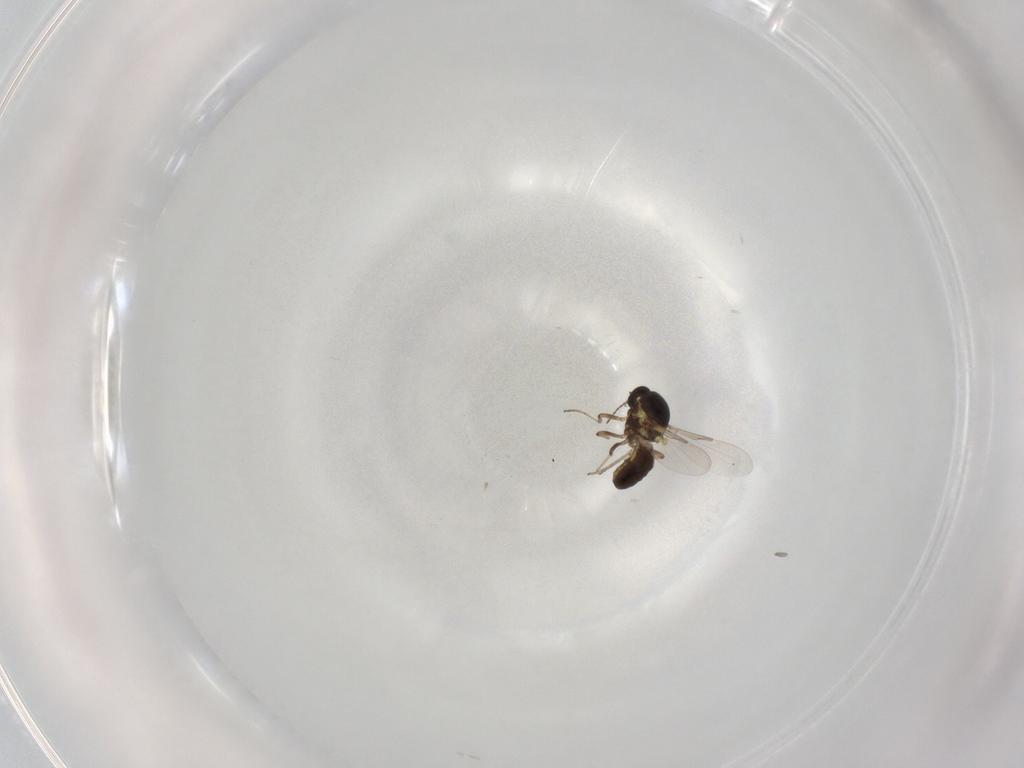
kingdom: Animalia
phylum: Arthropoda
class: Insecta
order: Diptera
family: Ceratopogonidae
